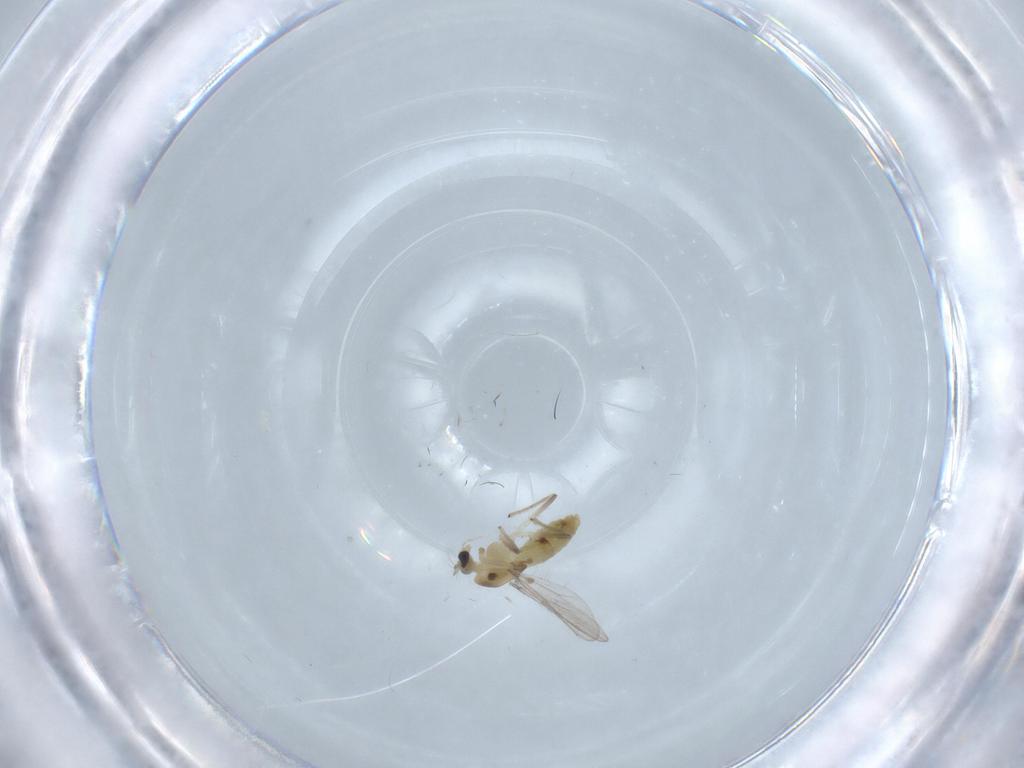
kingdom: Animalia
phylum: Arthropoda
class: Insecta
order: Diptera
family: Chironomidae
